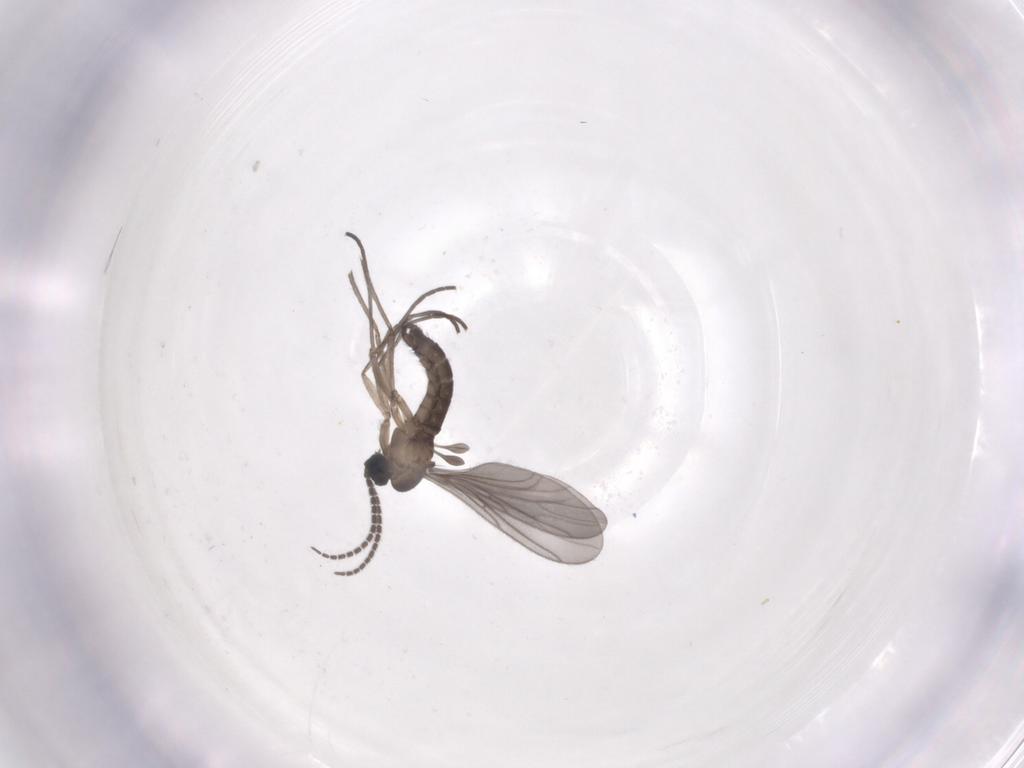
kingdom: Animalia
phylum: Arthropoda
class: Insecta
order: Diptera
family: Sciaridae
